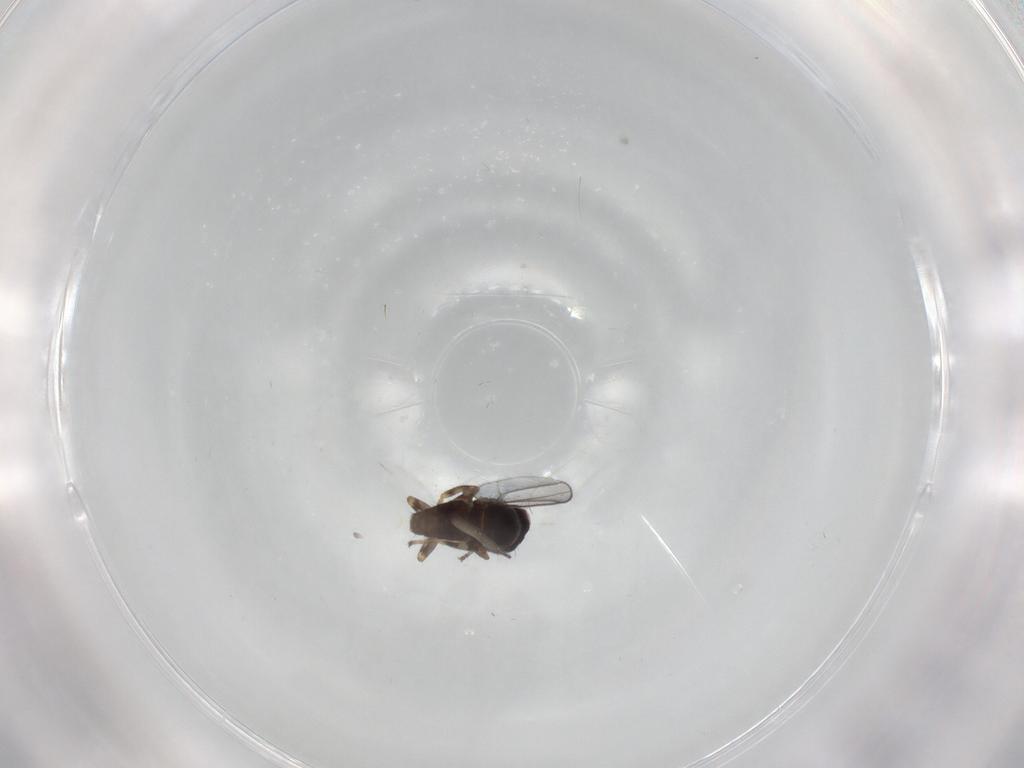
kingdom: Animalia
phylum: Arthropoda
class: Insecta
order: Diptera
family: Chloropidae
